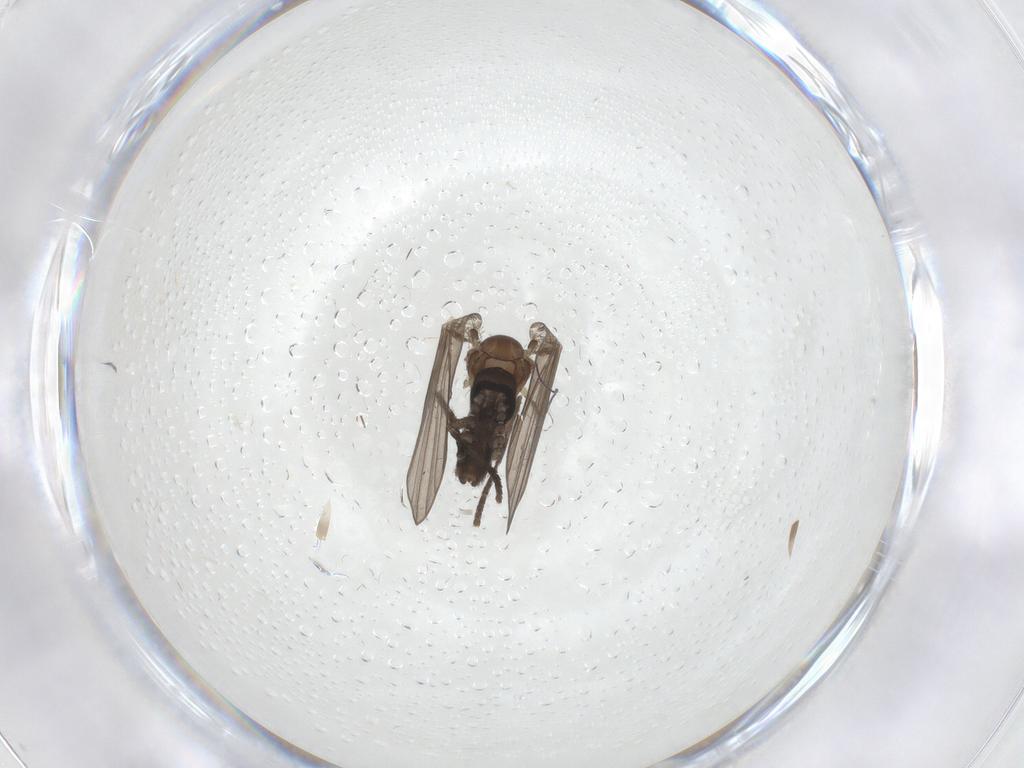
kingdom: Animalia
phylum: Arthropoda
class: Insecta
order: Diptera
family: Psychodidae
